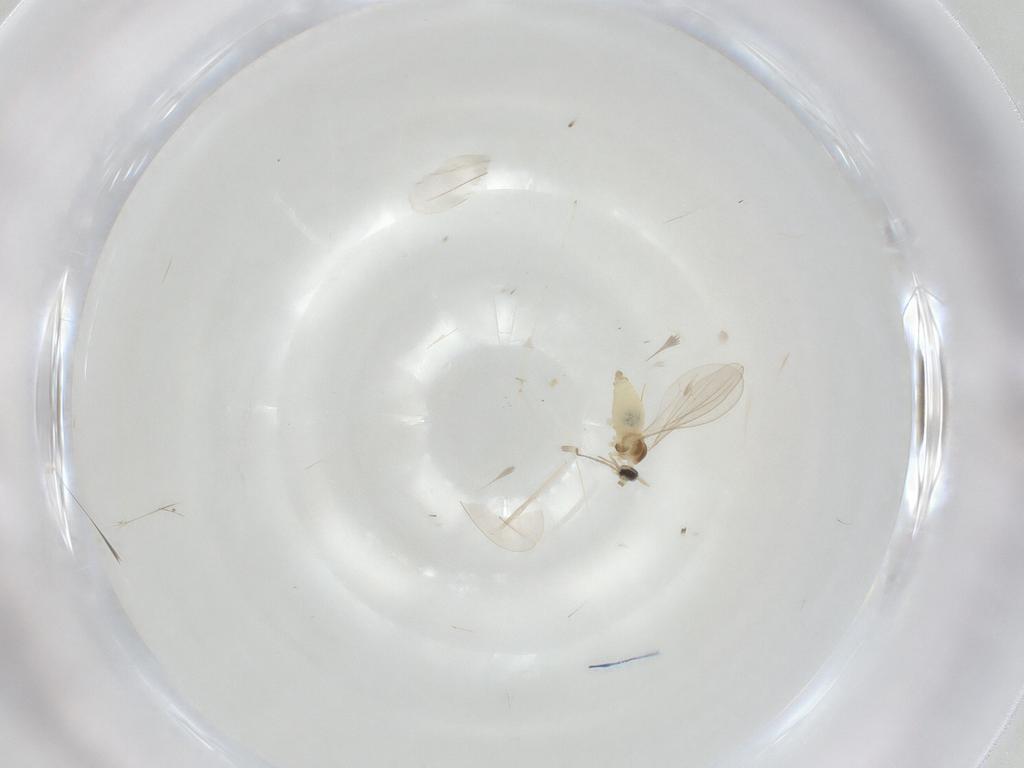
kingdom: Animalia
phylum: Arthropoda
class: Insecta
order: Diptera
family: Cecidomyiidae
